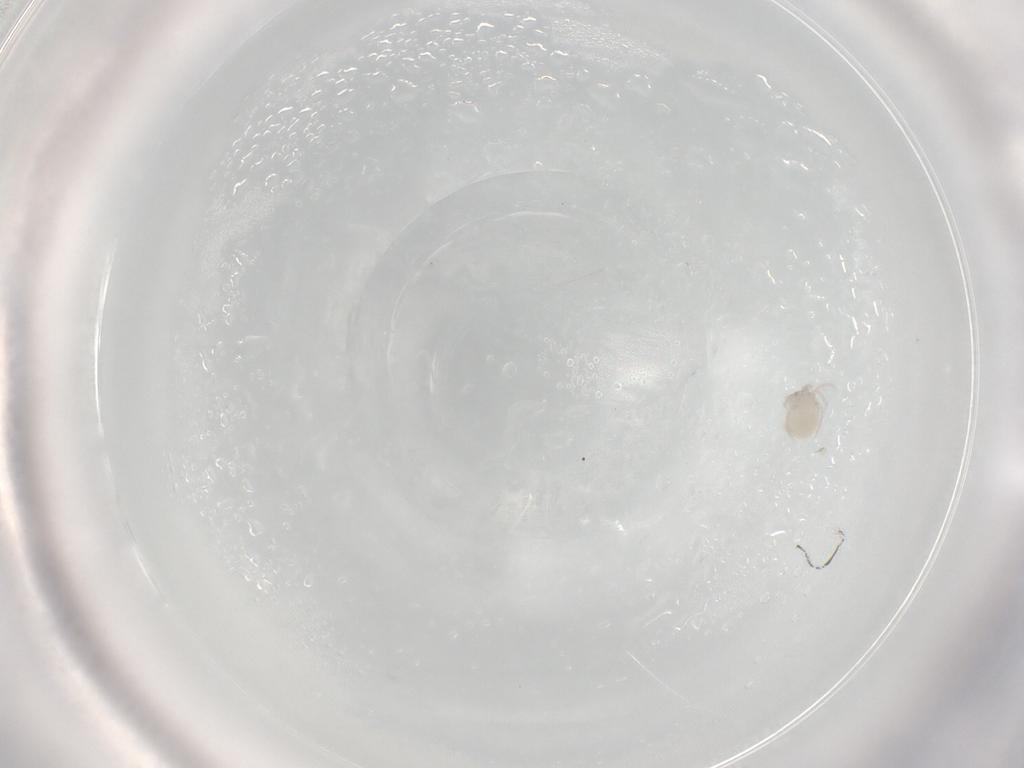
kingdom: Animalia
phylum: Arthropoda
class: Arachnida
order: Trombidiformes
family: Lebertiidae
